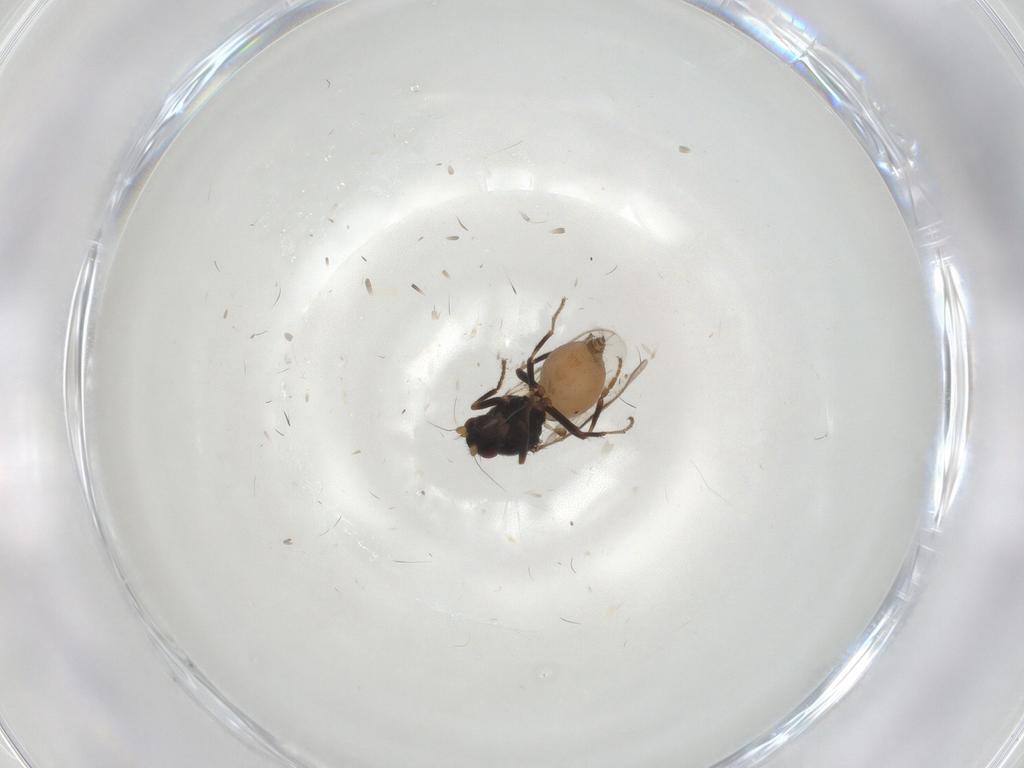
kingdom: Animalia
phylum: Arthropoda
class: Insecta
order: Diptera
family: Sphaeroceridae
